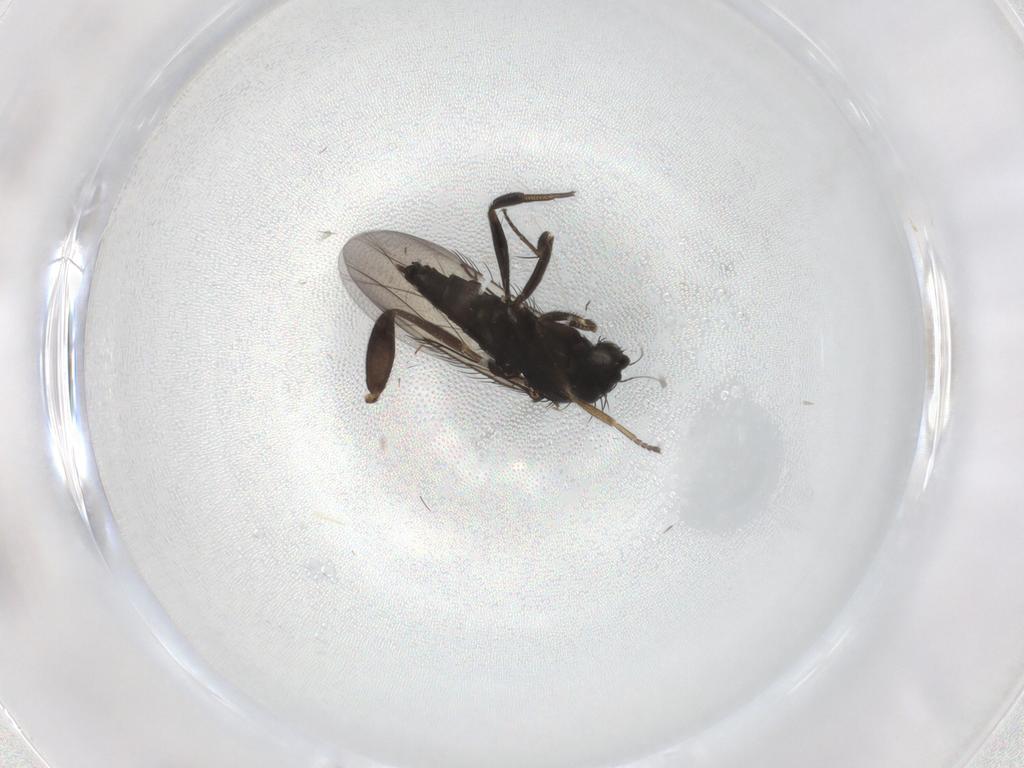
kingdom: Animalia
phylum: Arthropoda
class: Insecta
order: Diptera
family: Phoridae
